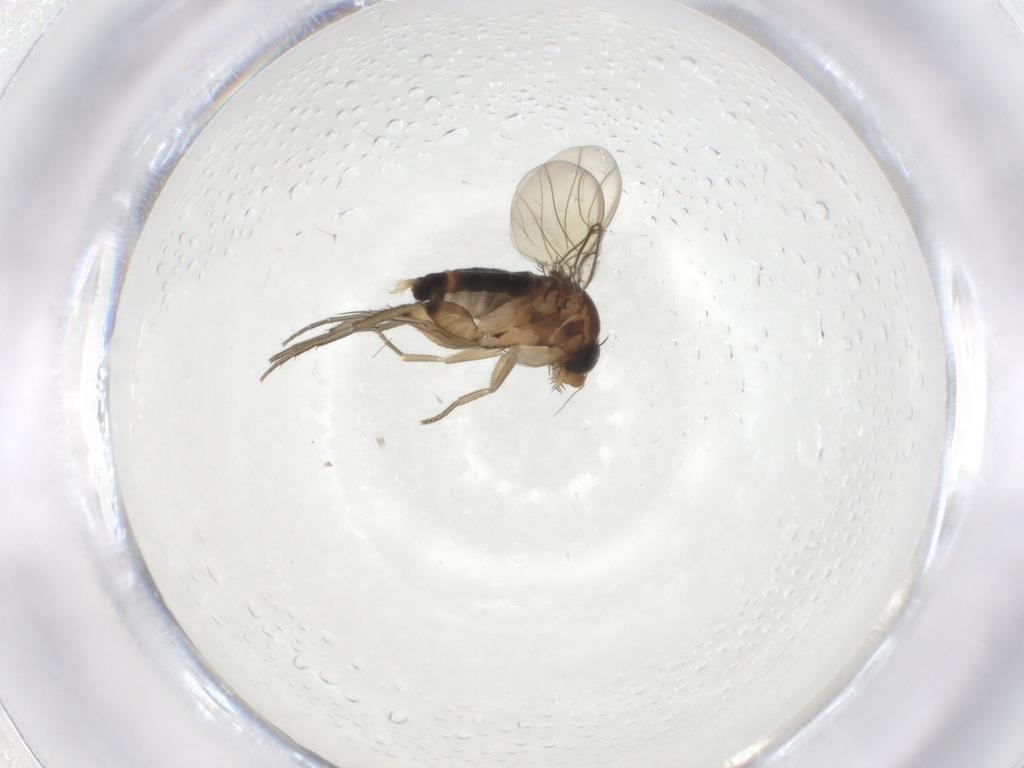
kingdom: Animalia
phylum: Arthropoda
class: Insecta
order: Diptera
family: Phoridae
